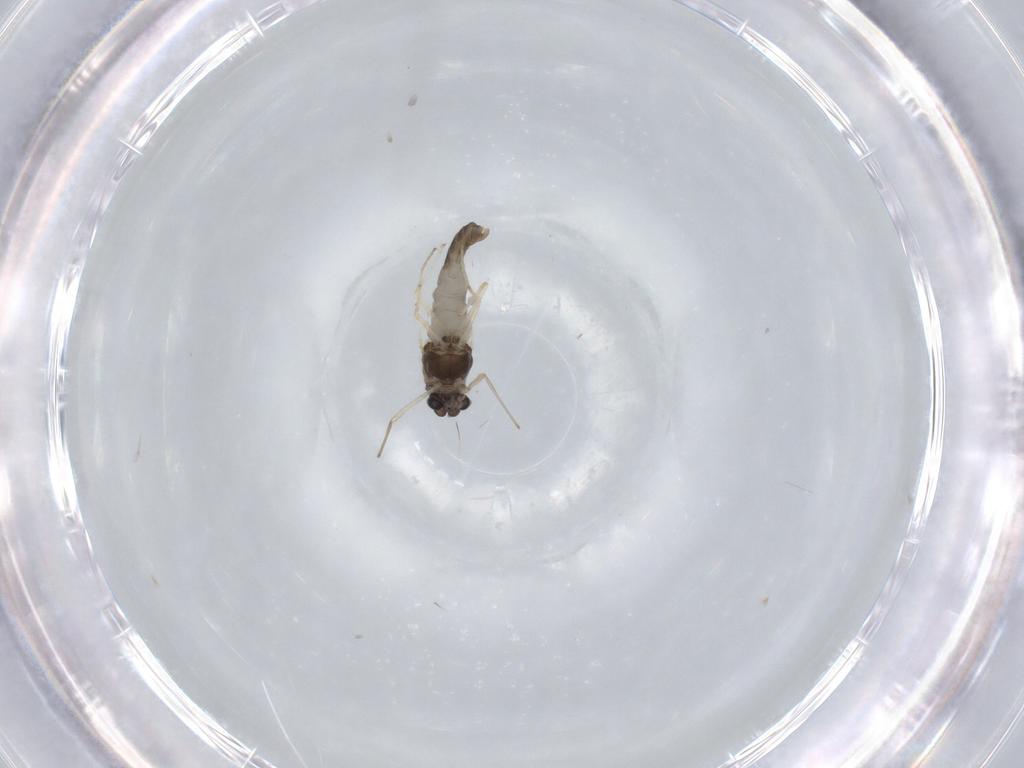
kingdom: Animalia
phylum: Arthropoda
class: Insecta
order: Diptera
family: Chironomidae
